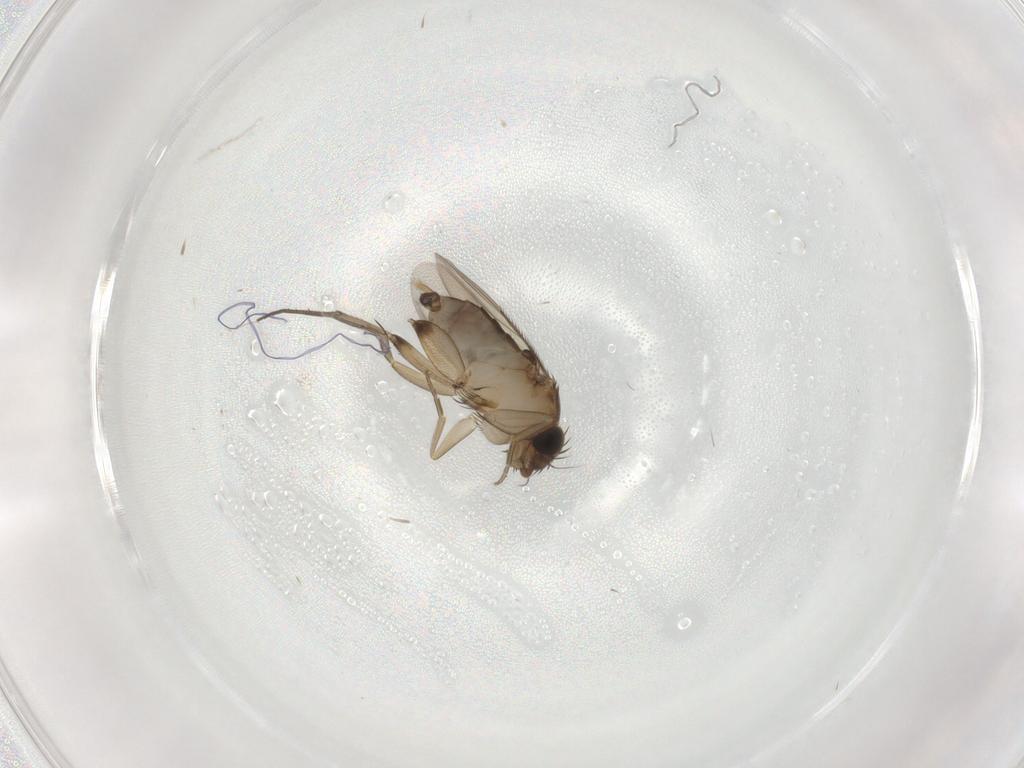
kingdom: Animalia
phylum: Arthropoda
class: Insecta
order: Diptera
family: Phoridae
